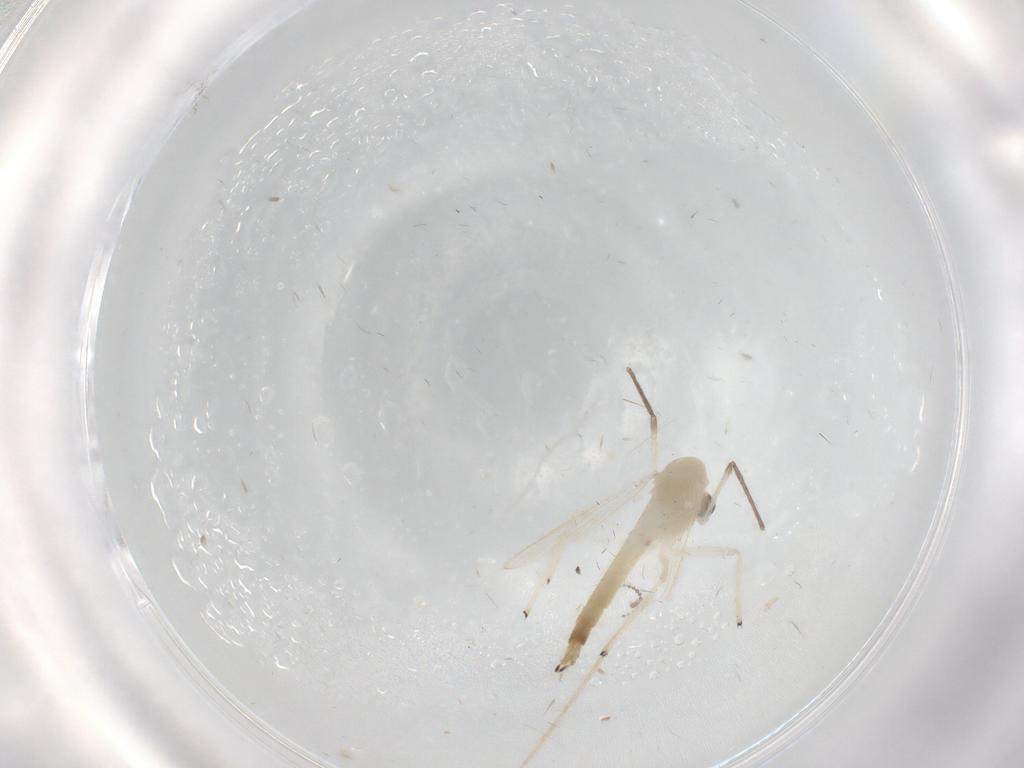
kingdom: Animalia
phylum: Arthropoda
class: Insecta
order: Diptera
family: Chironomidae
